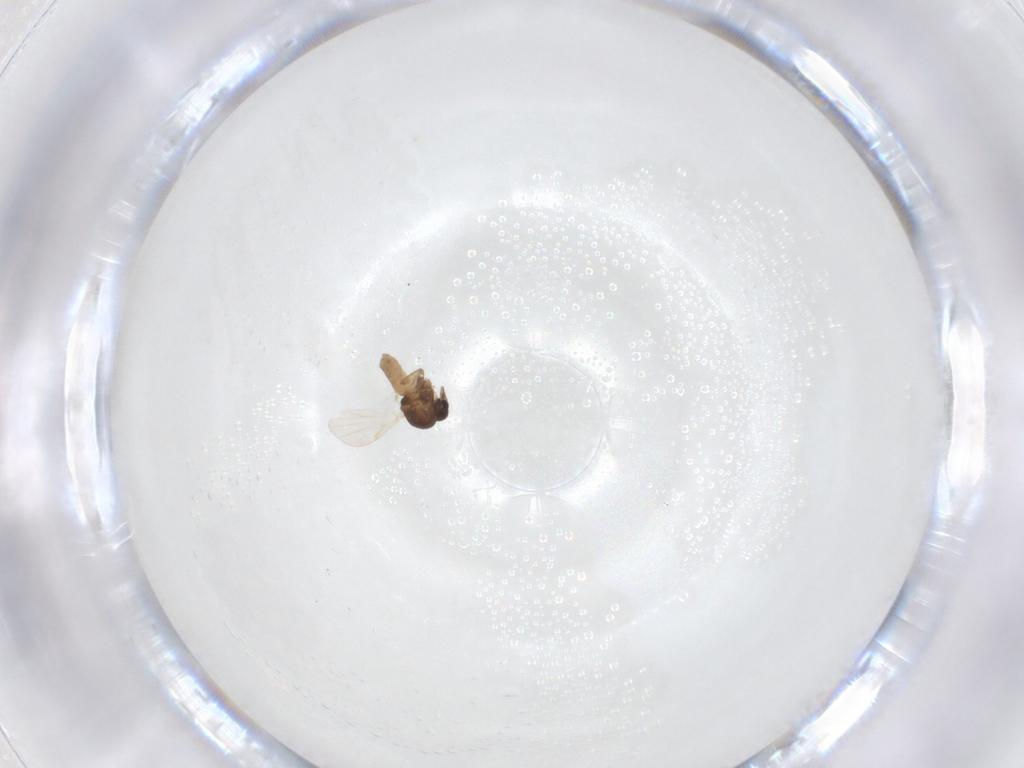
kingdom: Animalia
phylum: Arthropoda
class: Insecta
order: Diptera
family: Ceratopogonidae
